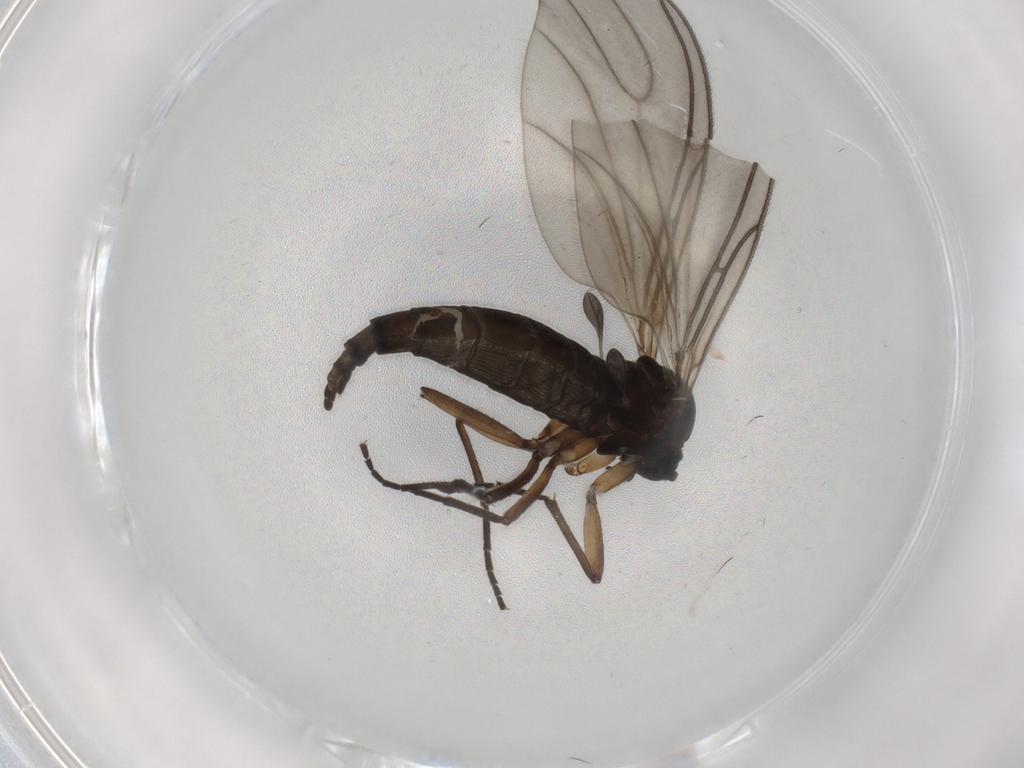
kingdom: Animalia
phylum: Arthropoda
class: Insecta
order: Diptera
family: Sciaridae
